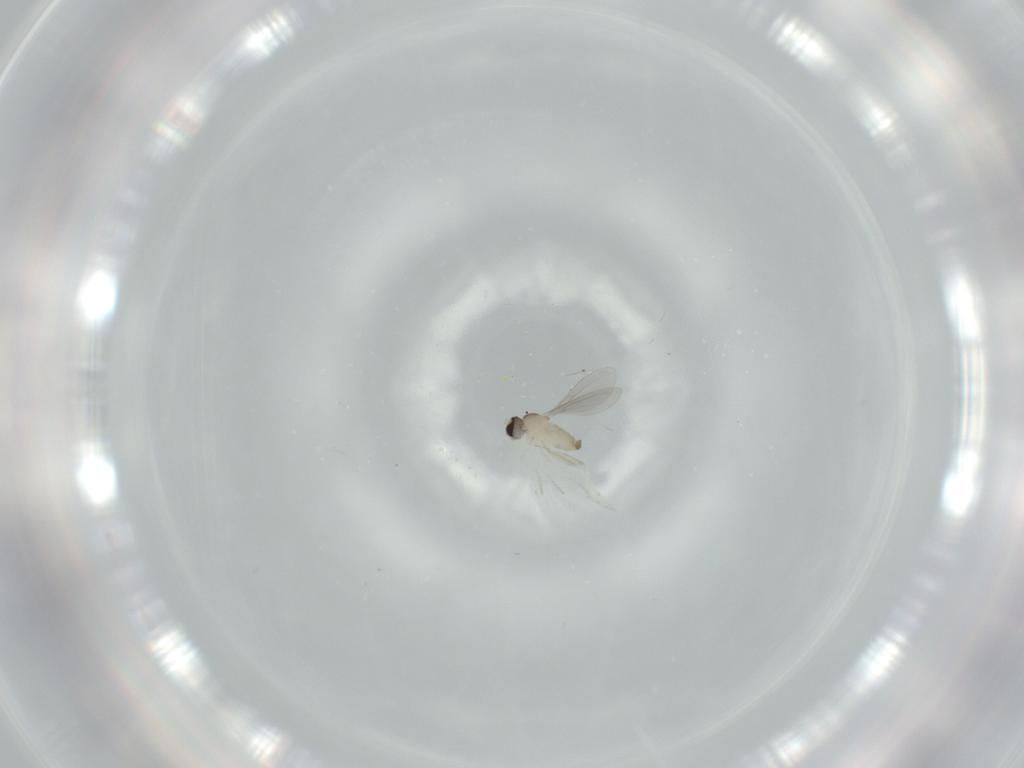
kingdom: Animalia
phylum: Arthropoda
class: Insecta
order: Diptera
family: Cecidomyiidae
